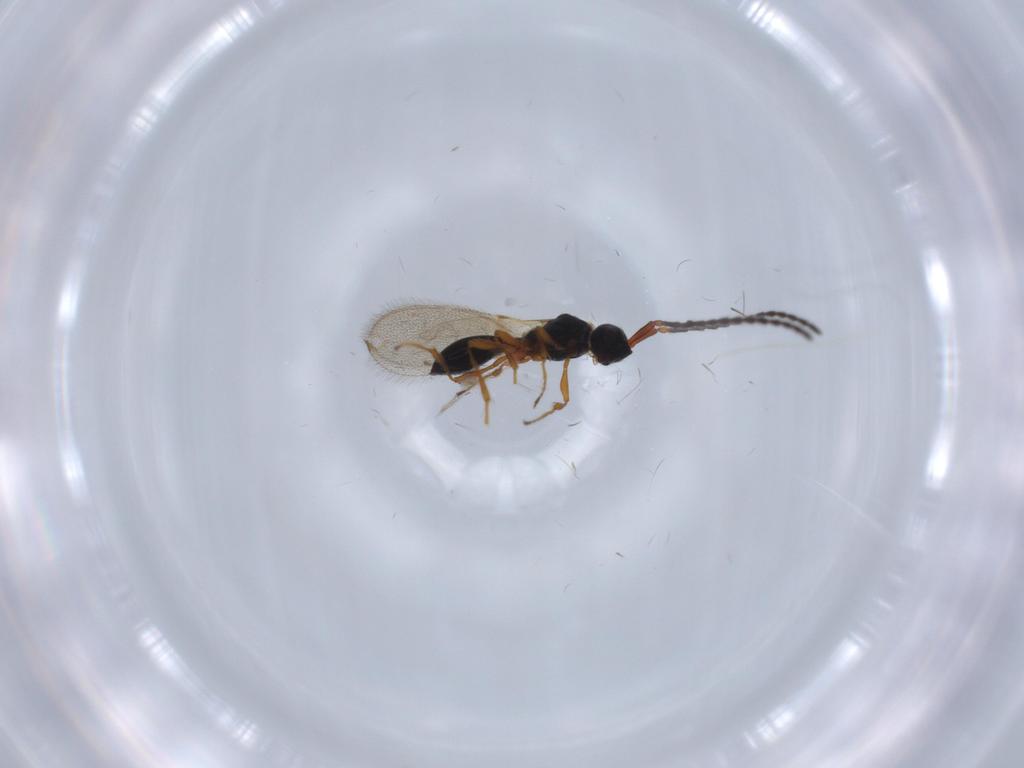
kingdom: Animalia
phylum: Arthropoda
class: Insecta
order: Hymenoptera
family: Diapriidae
